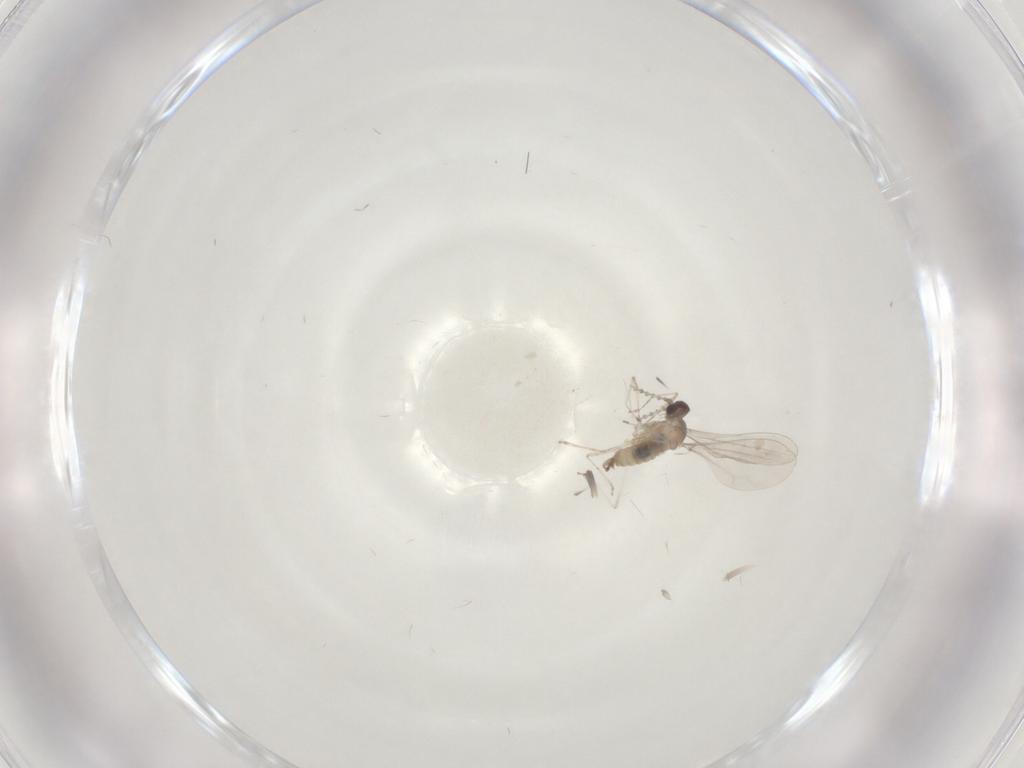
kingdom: Animalia
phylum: Arthropoda
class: Insecta
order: Diptera
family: Cecidomyiidae
